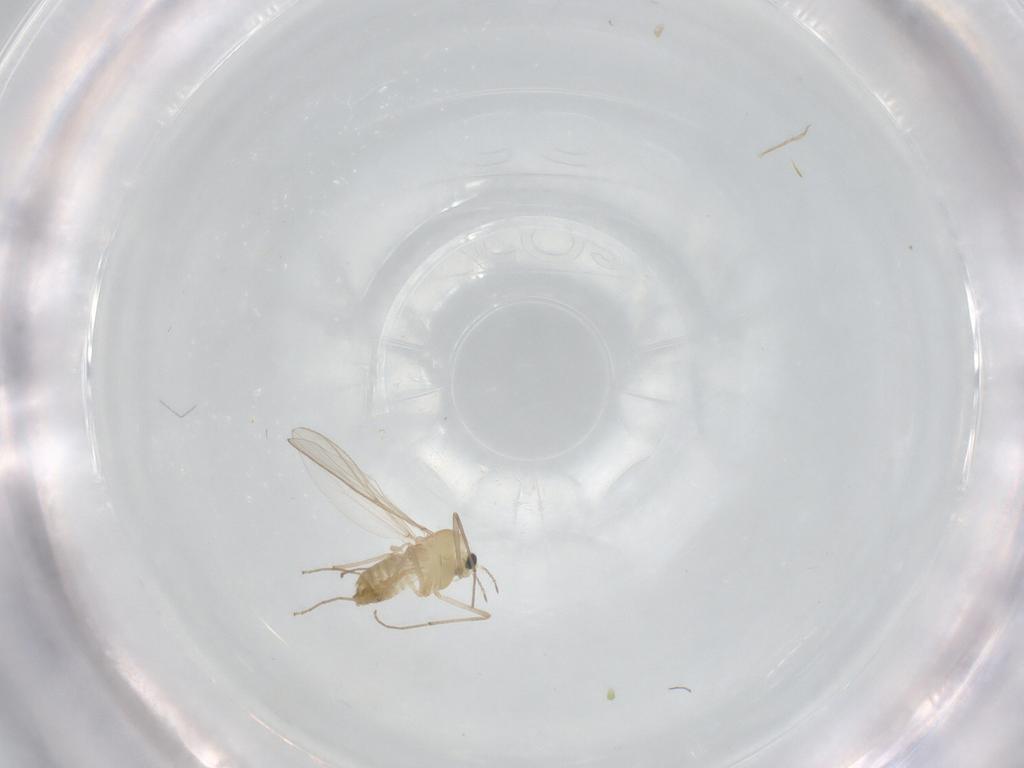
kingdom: Animalia
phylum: Arthropoda
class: Insecta
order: Diptera
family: Chironomidae
